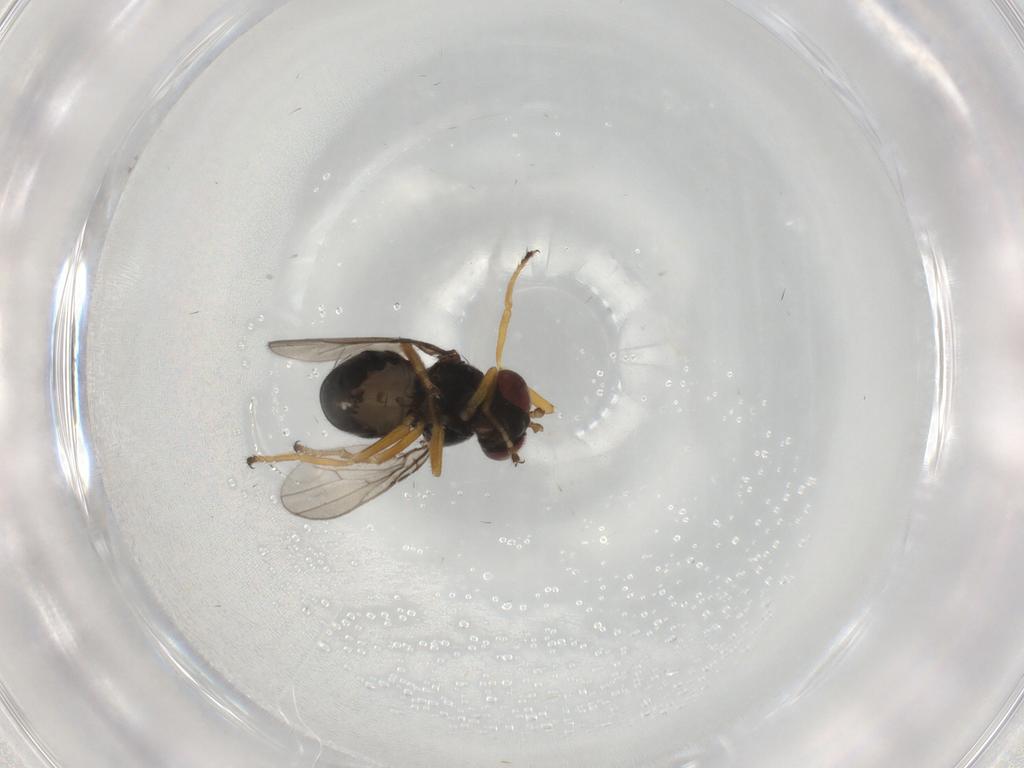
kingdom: Animalia
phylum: Arthropoda
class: Insecta
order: Diptera
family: Ephydridae
